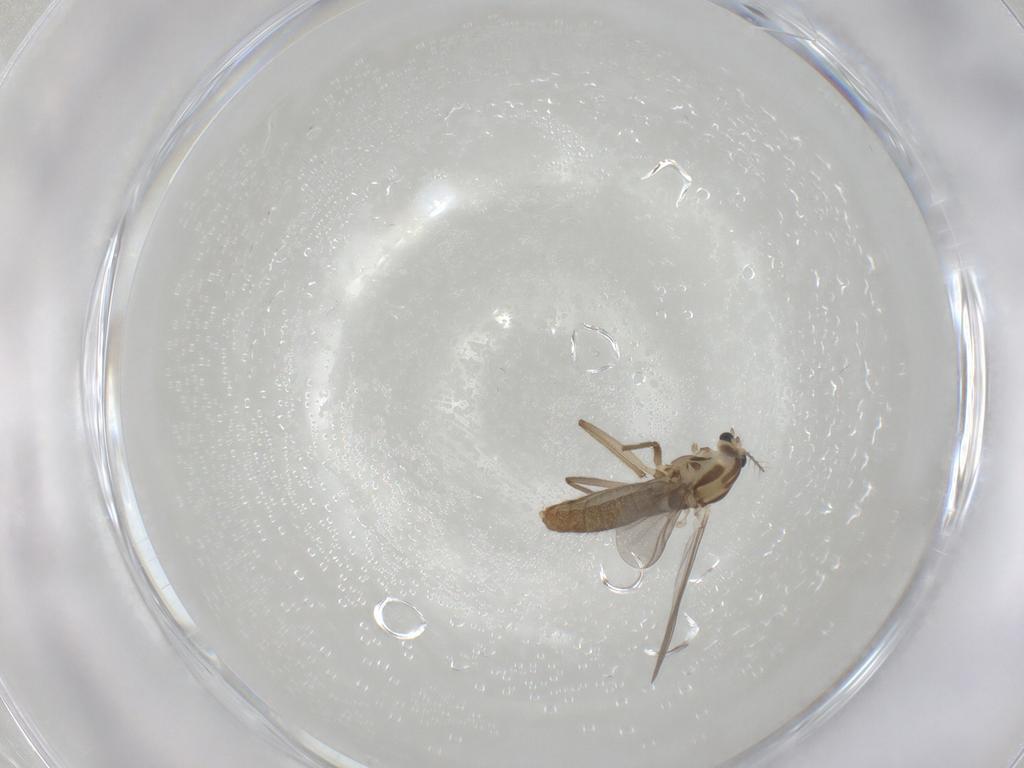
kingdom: Animalia
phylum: Arthropoda
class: Insecta
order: Diptera
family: Chironomidae
